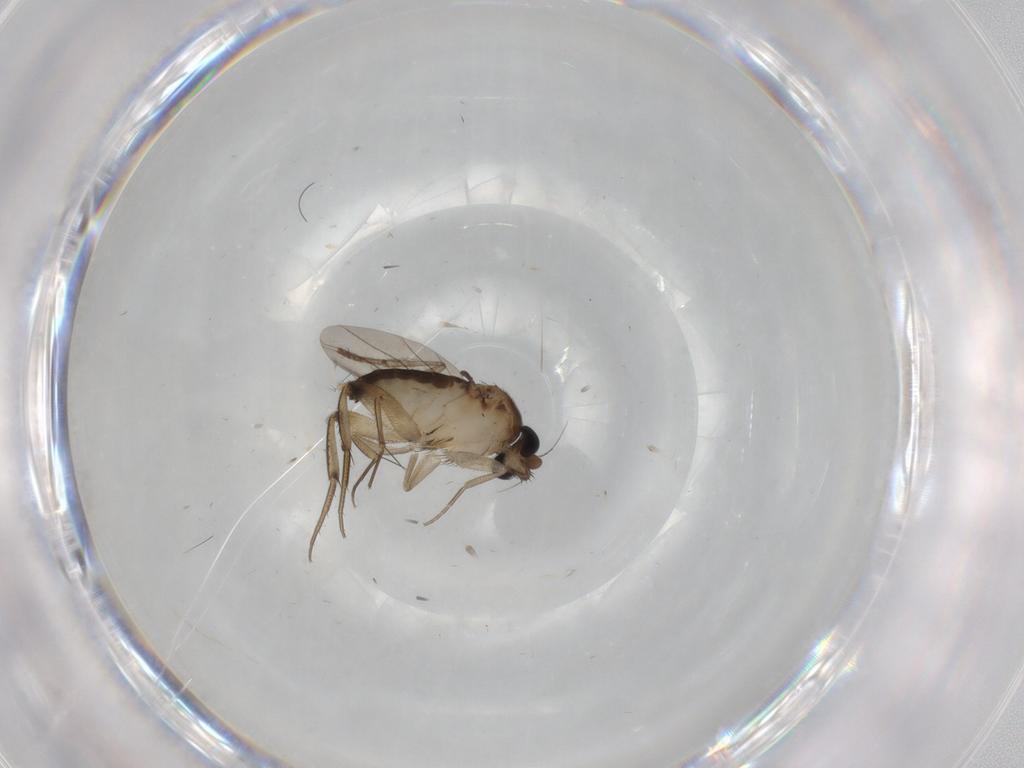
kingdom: Animalia
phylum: Arthropoda
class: Insecta
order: Diptera
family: Phoridae
